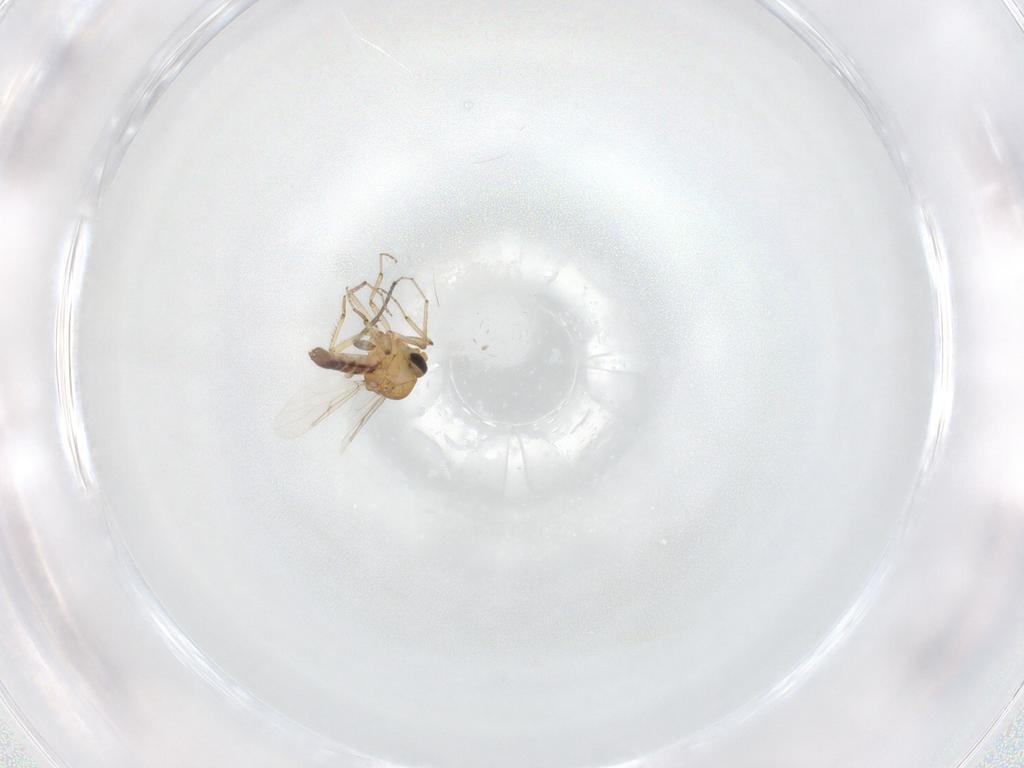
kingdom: Animalia
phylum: Arthropoda
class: Insecta
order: Diptera
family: Sciaridae
